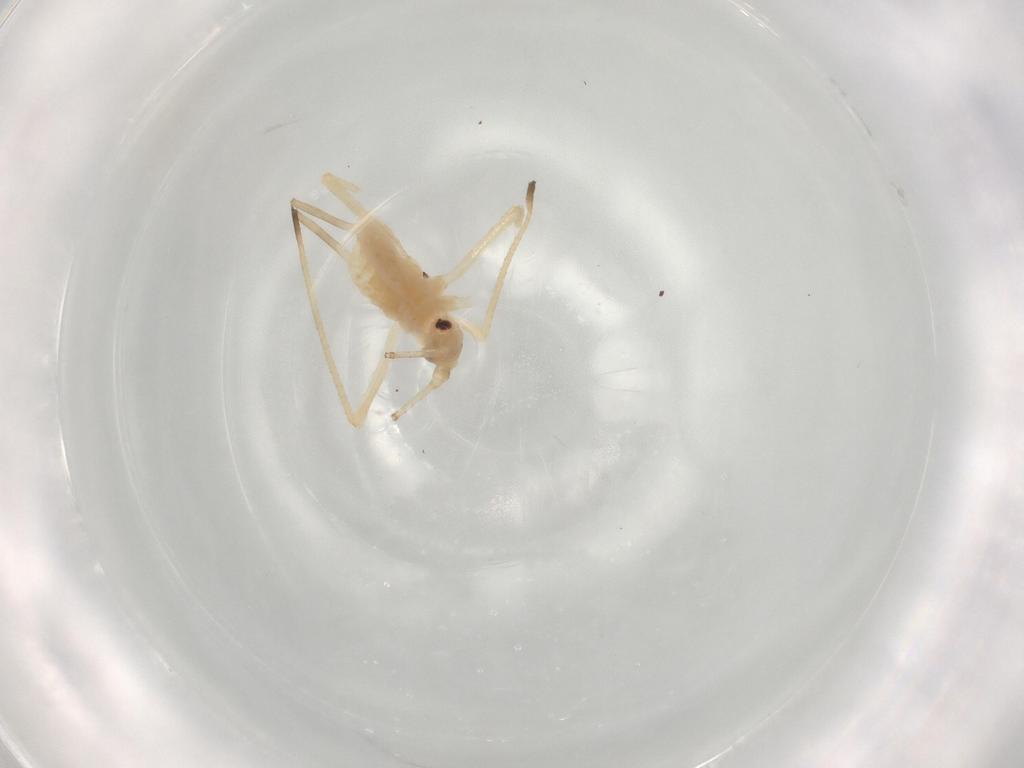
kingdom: Animalia
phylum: Arthropoda
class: Insecta
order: Hemiptera
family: Aphididae
